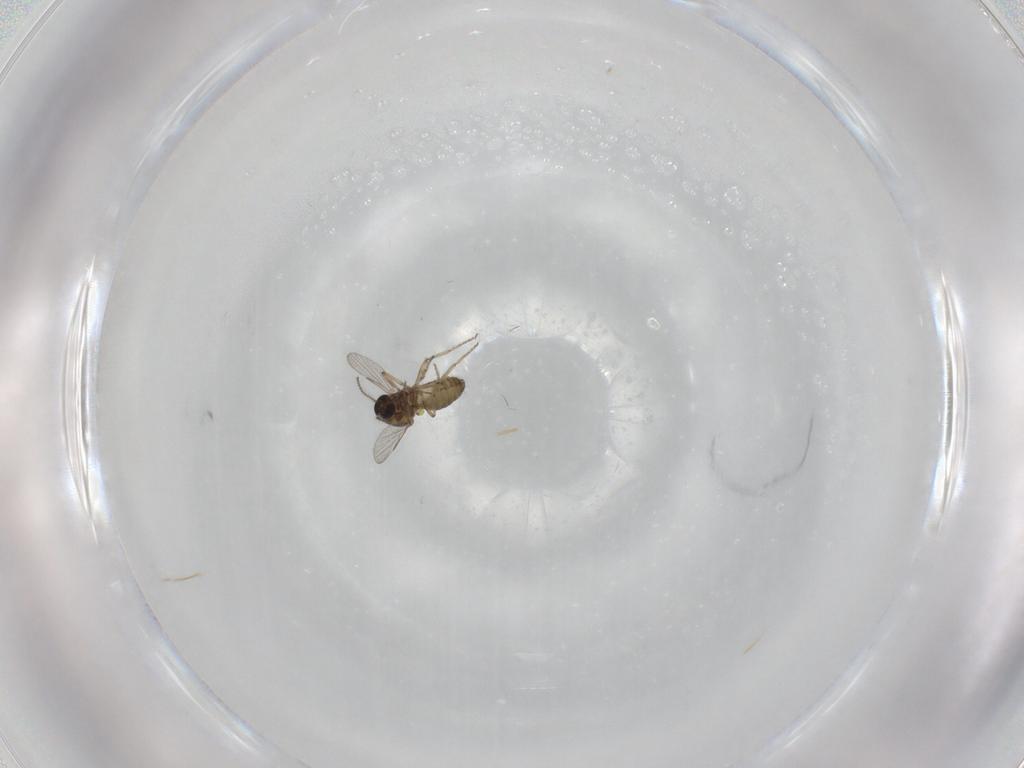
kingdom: Animalia
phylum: Arthropoda
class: Insecta
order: Diptera
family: Ceratopogonidae
